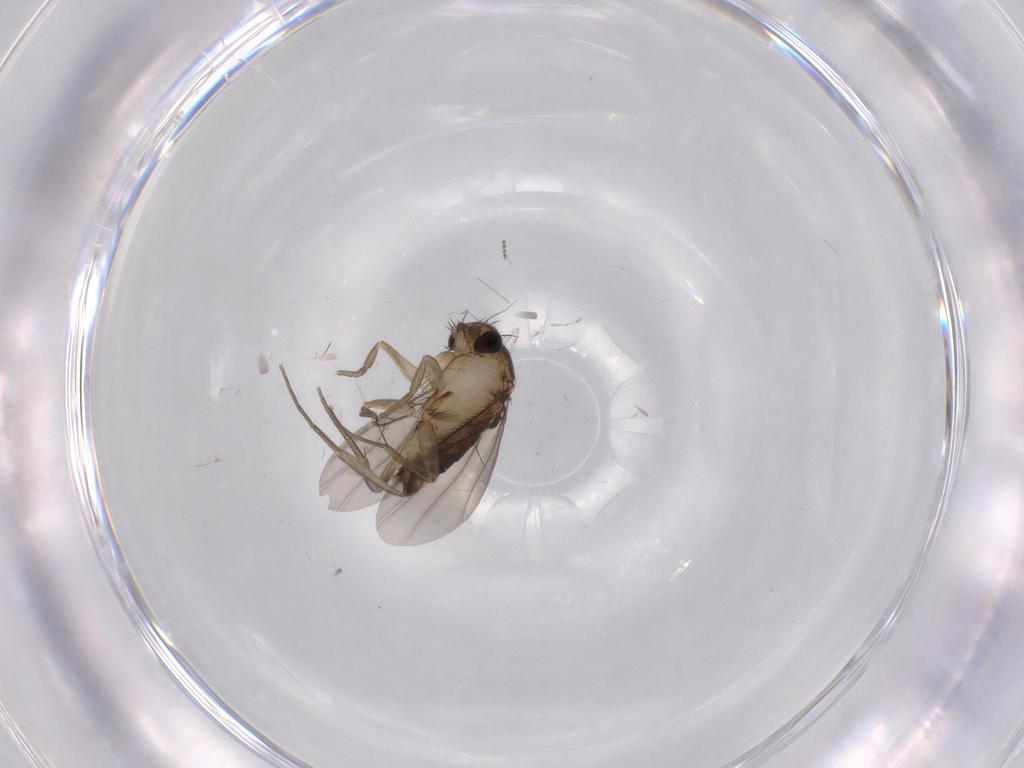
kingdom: Animalia
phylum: Arthropoda
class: Insecta
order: Diptera
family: Phoridae
